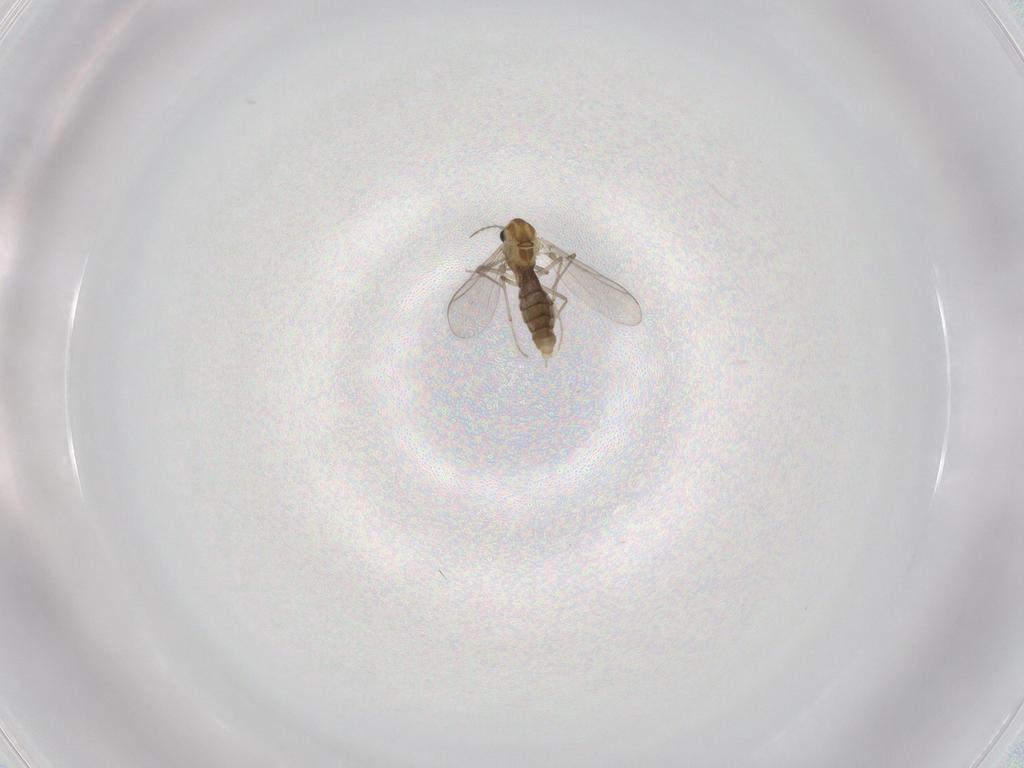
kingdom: Animalia
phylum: Arthropoda
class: Insecta
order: Diptera
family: Chironomidae
